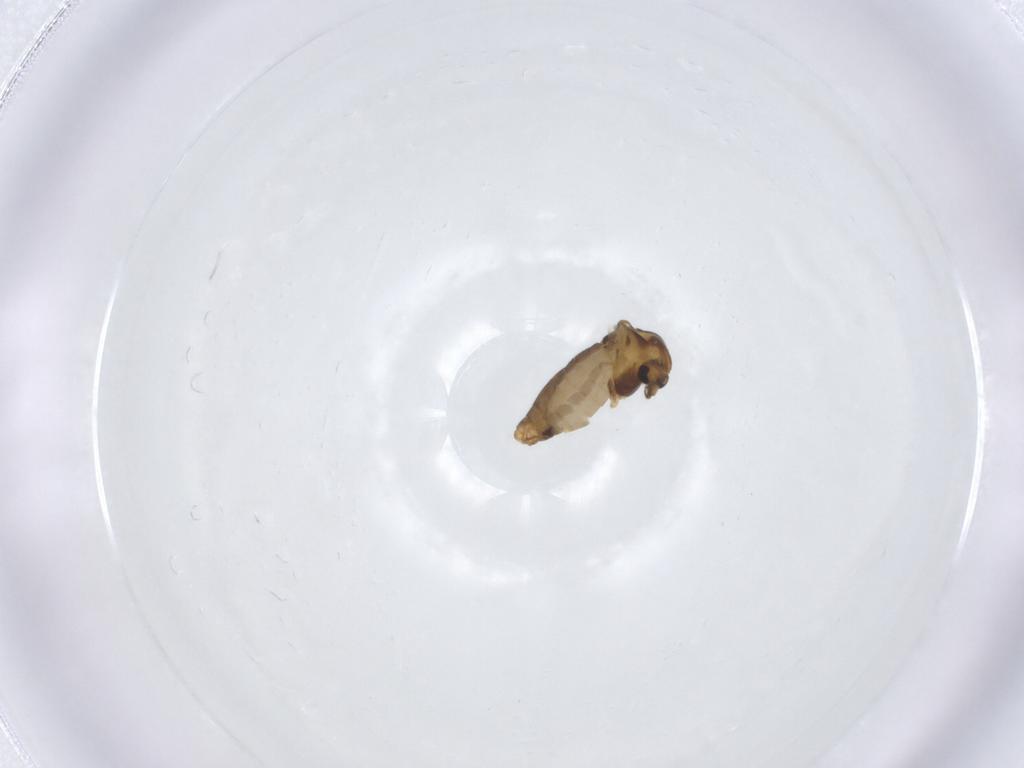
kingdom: Animalia
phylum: Arthropoda
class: Insecta
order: Diptera
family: Chironomidae
